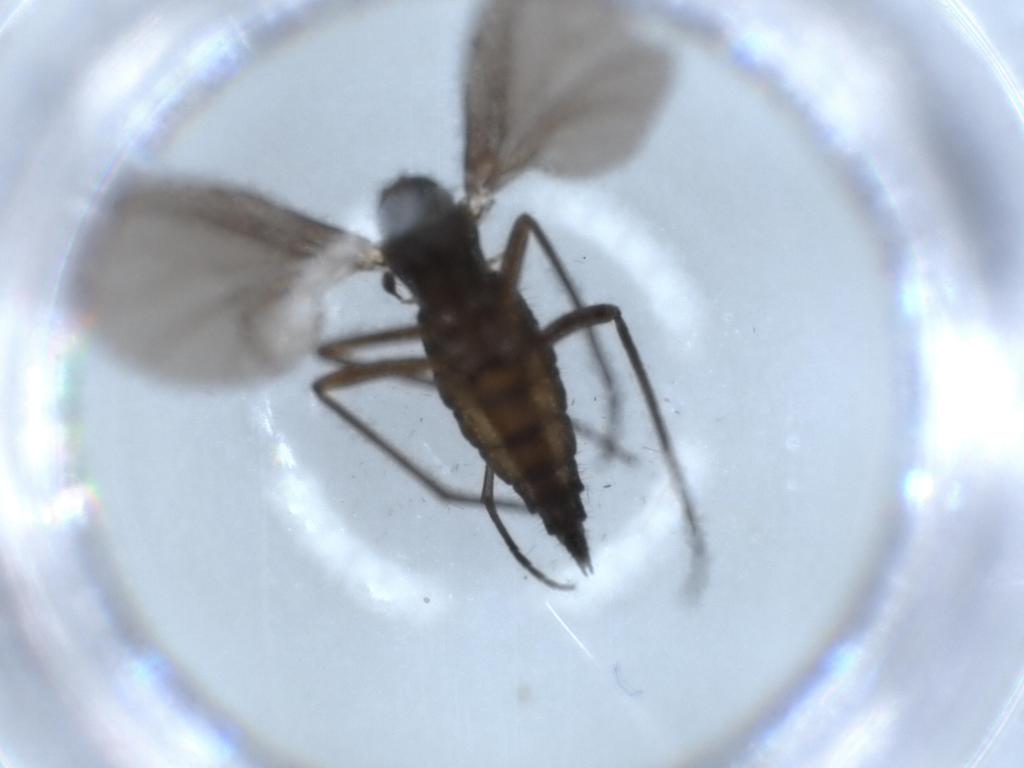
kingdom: Animalia
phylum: Arthropoda
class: Insecta
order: Diptera
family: Sciaridae
